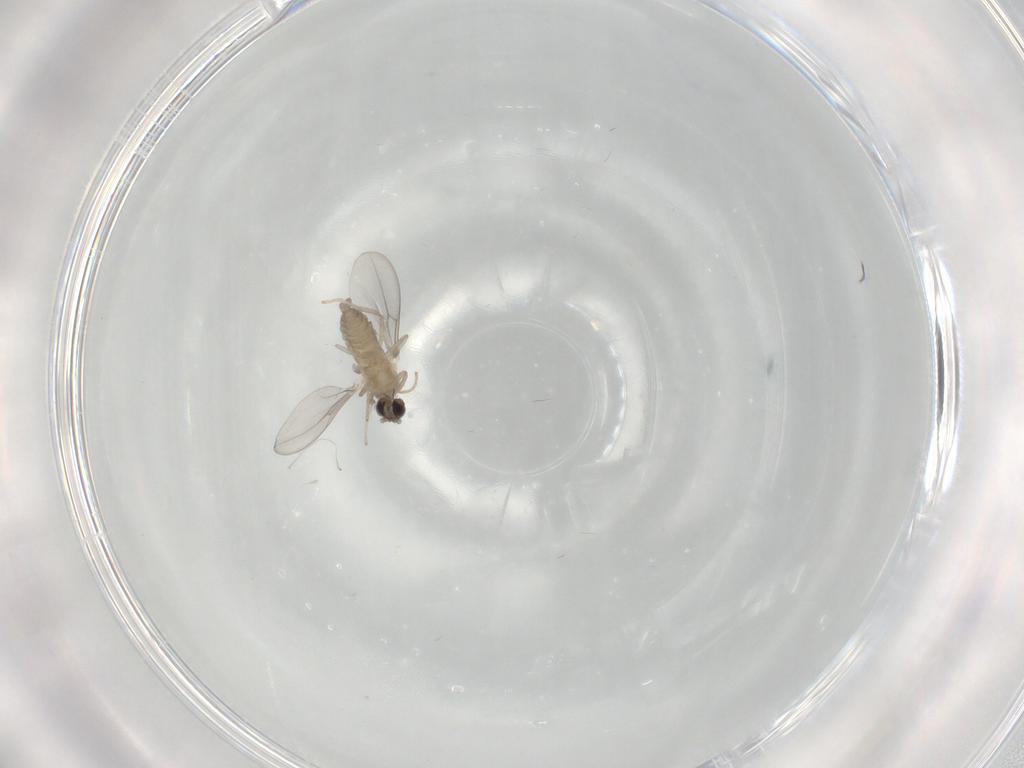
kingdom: Animalia
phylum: Arthropoda
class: Insecta
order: Diptera
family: Cecidomyiidae
